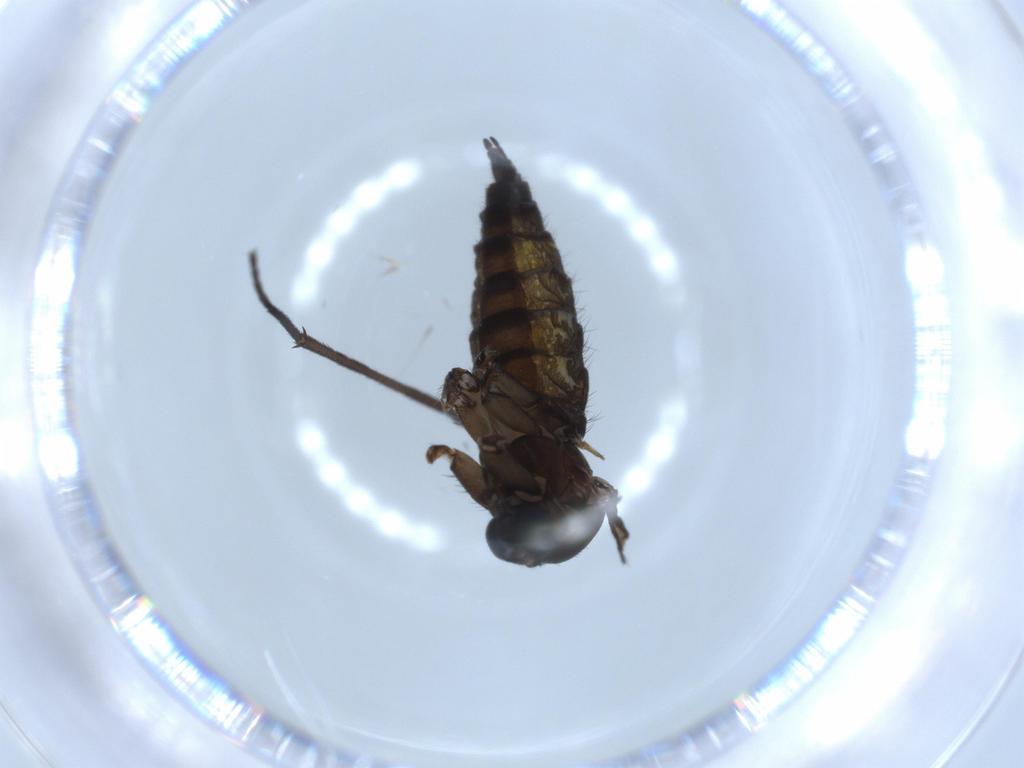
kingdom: Animalia
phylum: Arthropoda
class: Insecta
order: Diptera
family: Sciaridae
